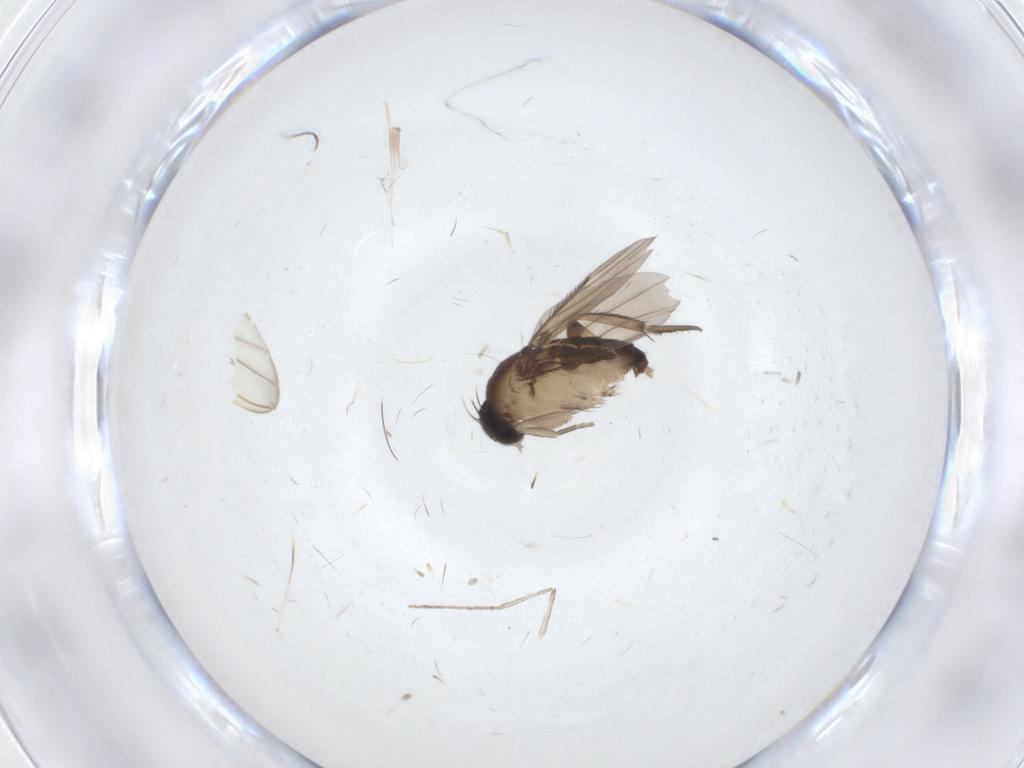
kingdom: Animalia
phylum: Arthropoda
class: Insecta
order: Diptera
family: Phoridae
